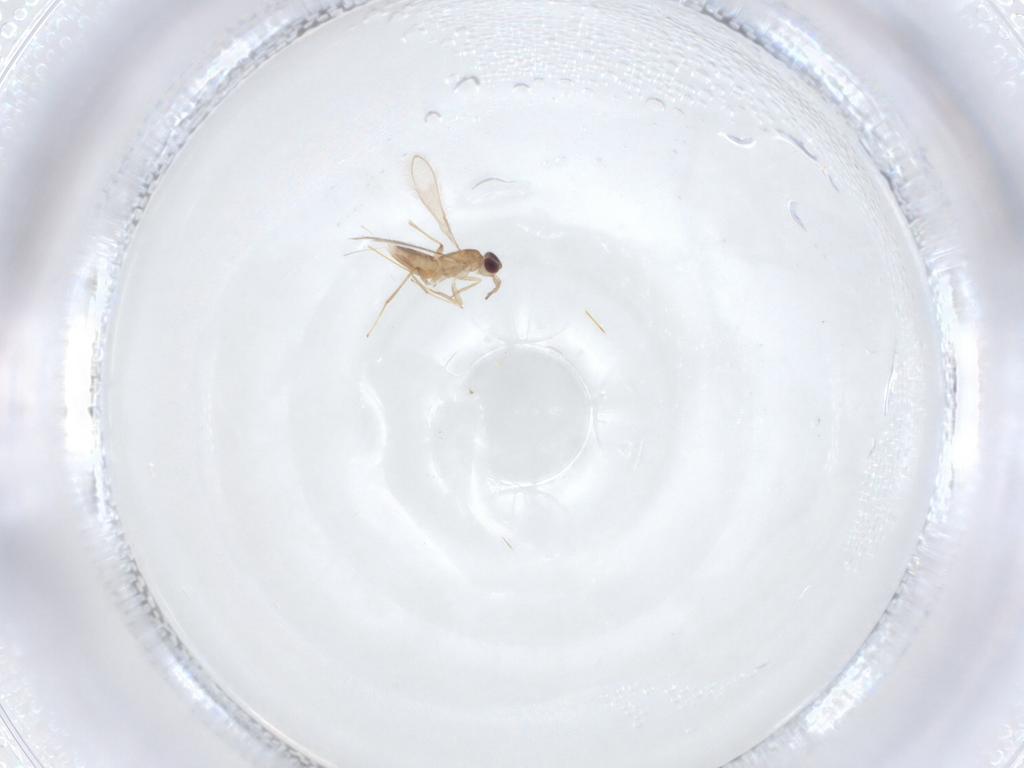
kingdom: Animalia
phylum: Arthropoda
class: Insecta
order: Hymenoptera
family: Mymaridae
